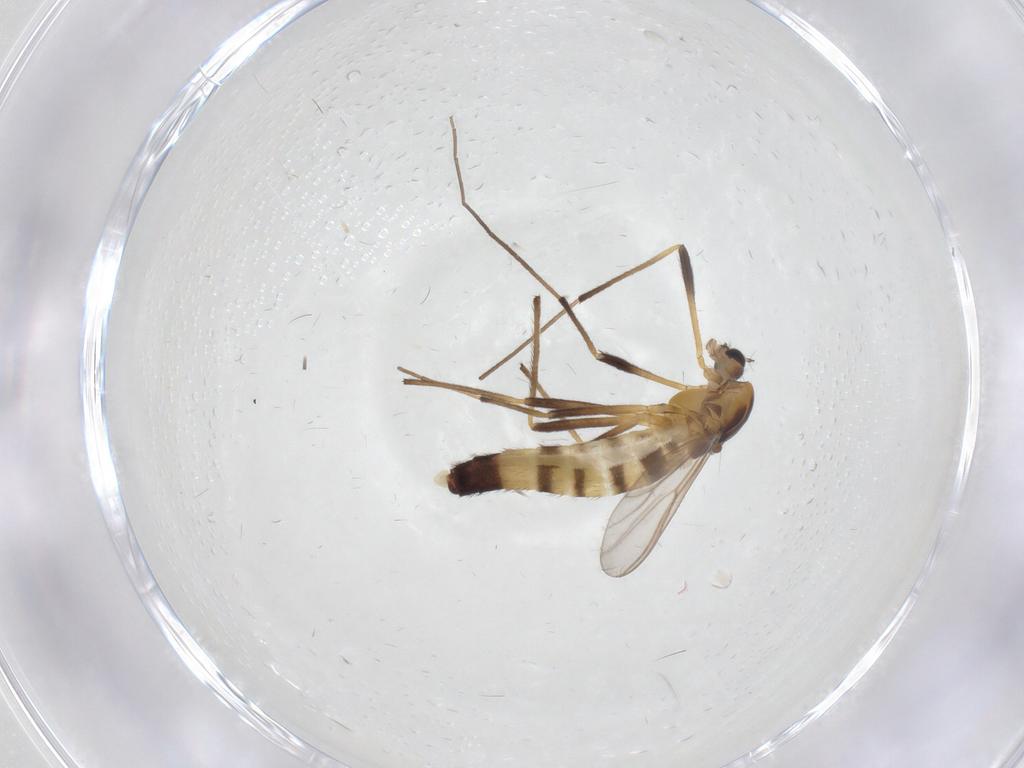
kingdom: Animalia
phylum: Arthropoda
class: Insecta
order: Diptera
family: Chironomidae
